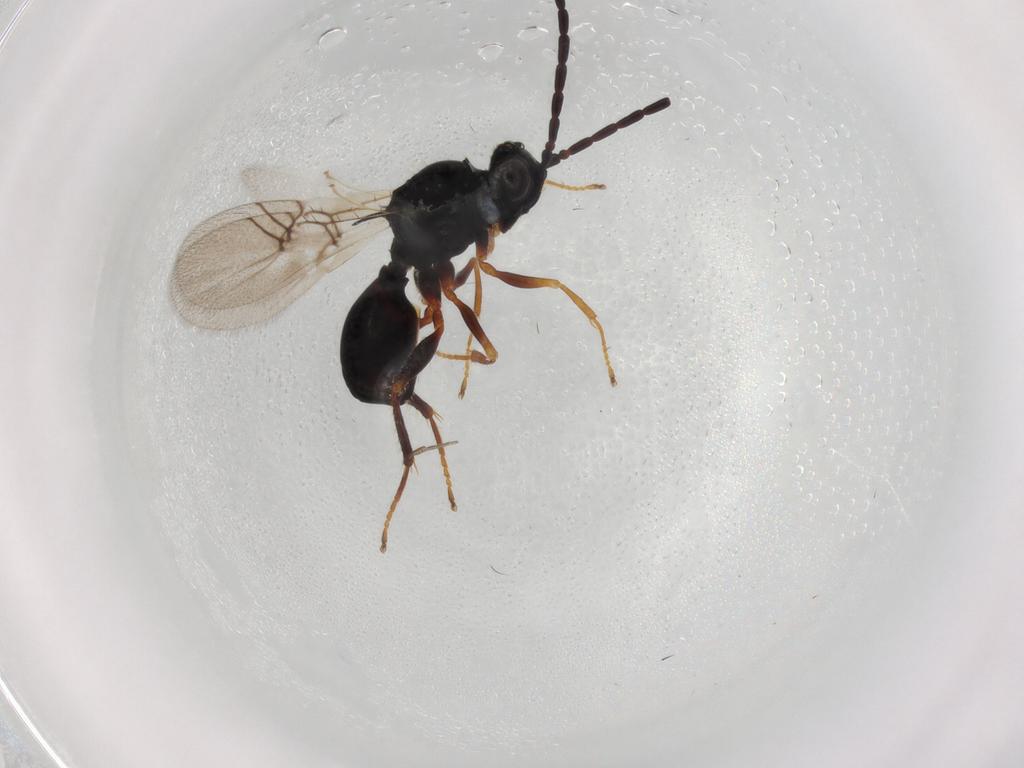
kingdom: Animalia
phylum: Arthropoda
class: Insecta
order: Hymenoptera
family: Figitidae
